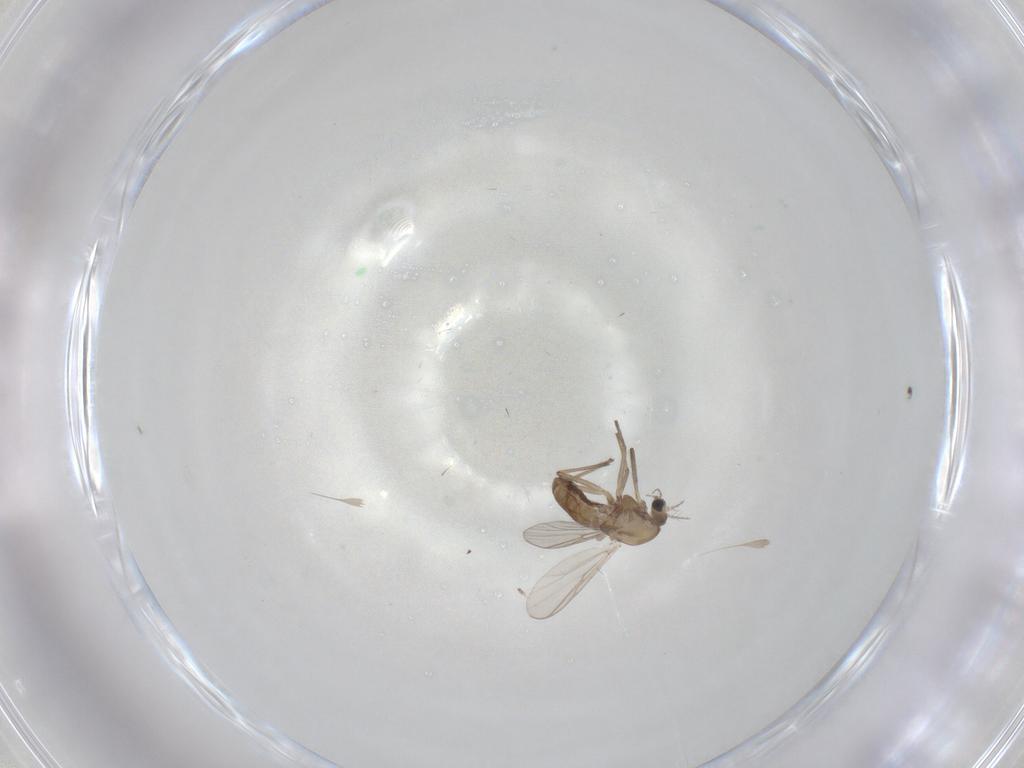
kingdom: Animalia
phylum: Arthropoda
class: Insecta
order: Diptera
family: Chironomidae
